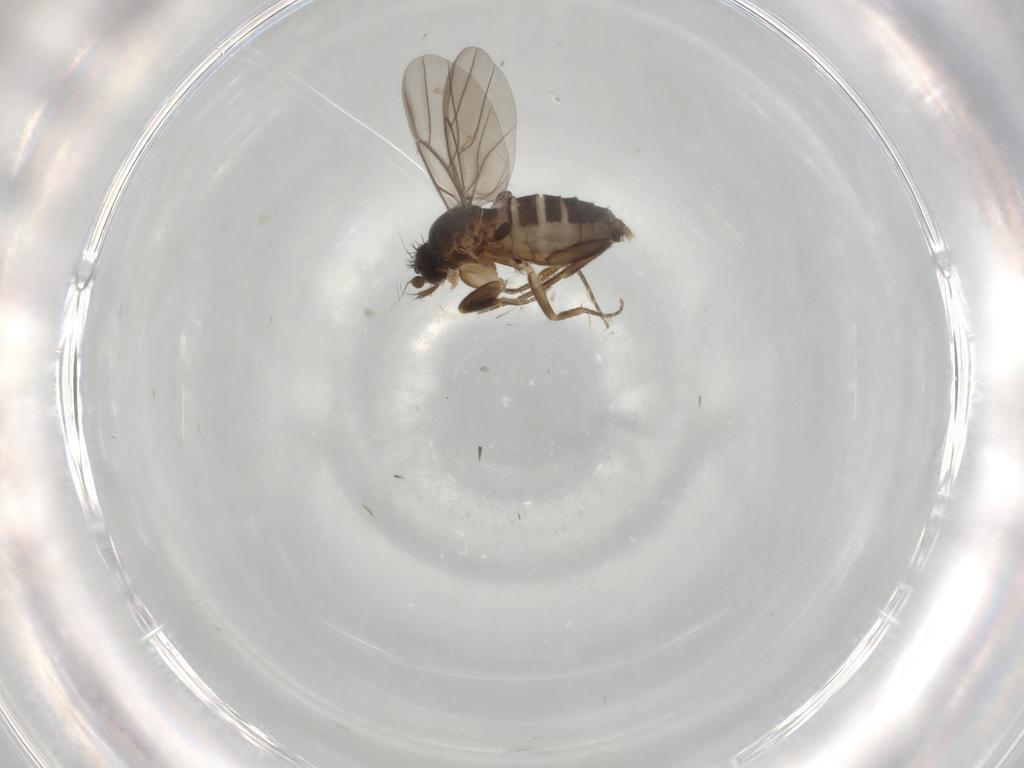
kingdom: Animalia
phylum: Arthropoda
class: Insecta
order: Diptera
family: Phoridae
